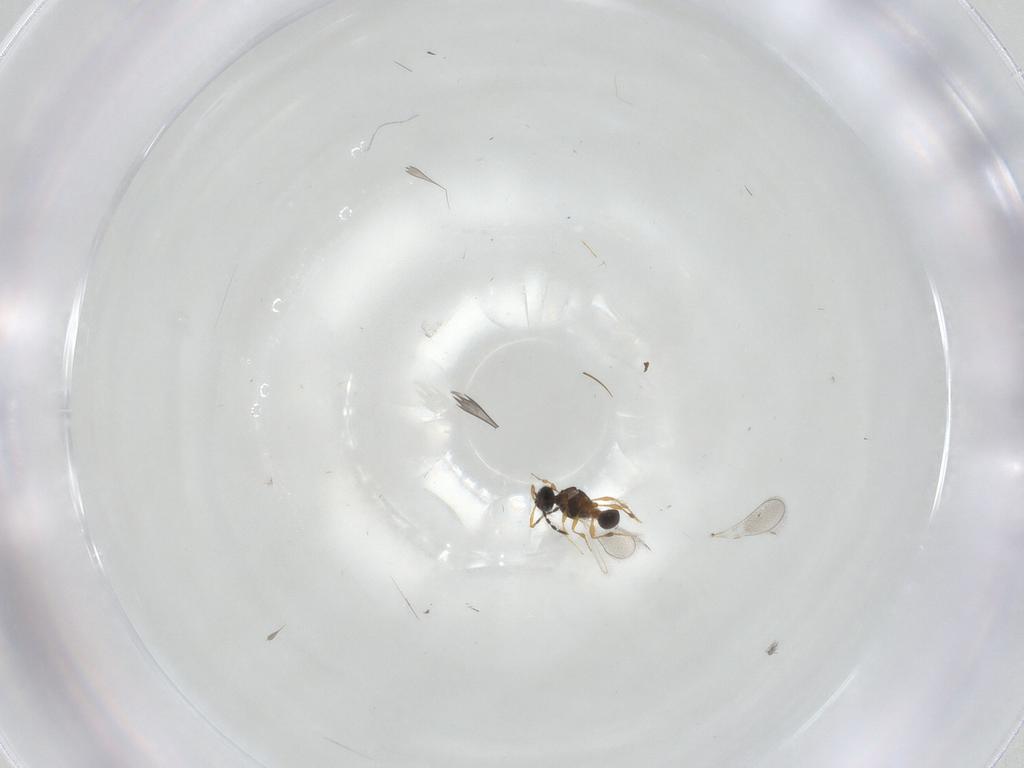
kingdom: Animalia
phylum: Arthropoda
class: Insecta
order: Hymenoptera
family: Platygastridae
